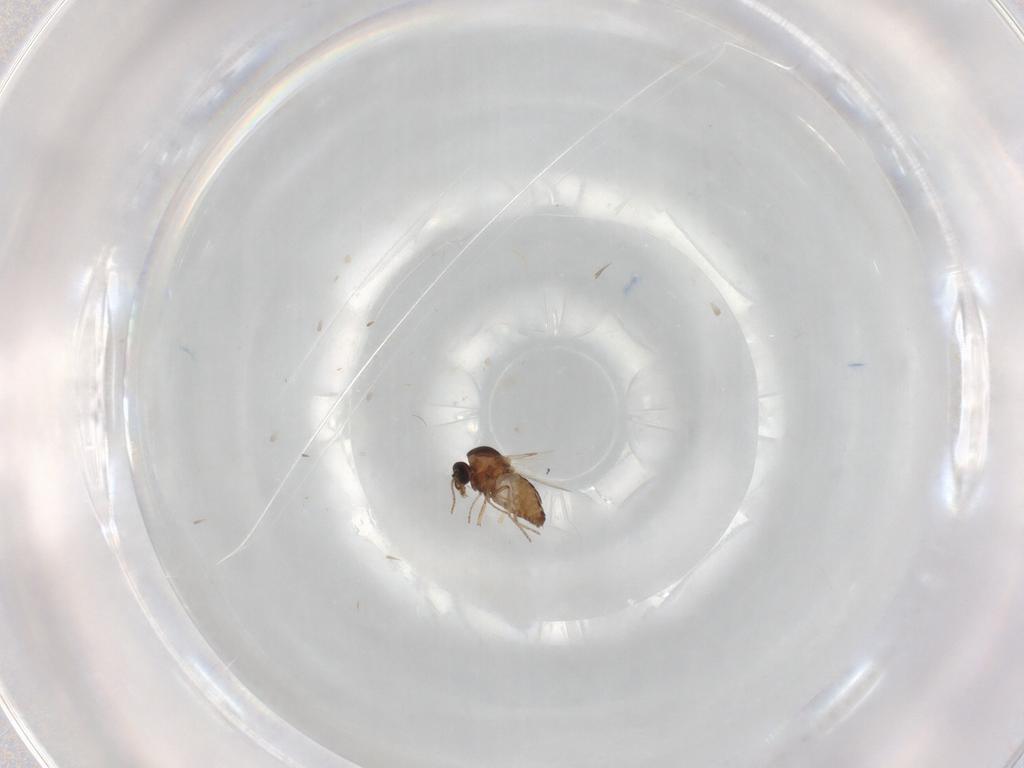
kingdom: Animalia
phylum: Arthropoda
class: Insecta
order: Diptera
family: Ceratopogonidae
